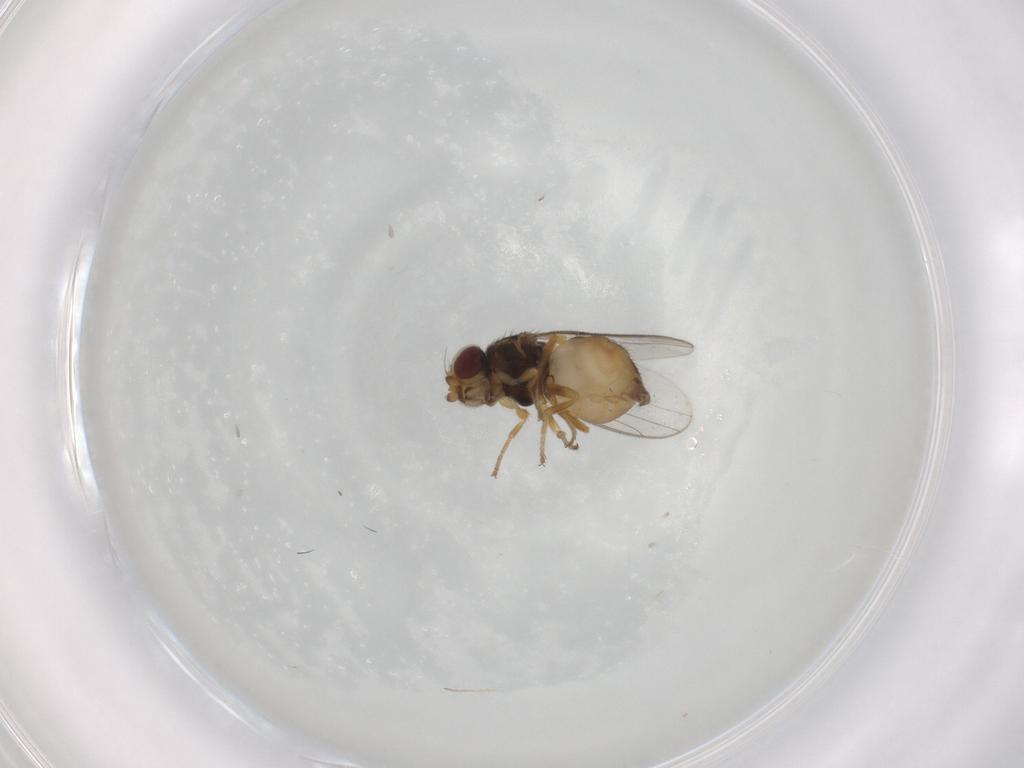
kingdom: Animalia
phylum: Arthropoda
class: Insecta
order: Diptera
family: Chloropidae
